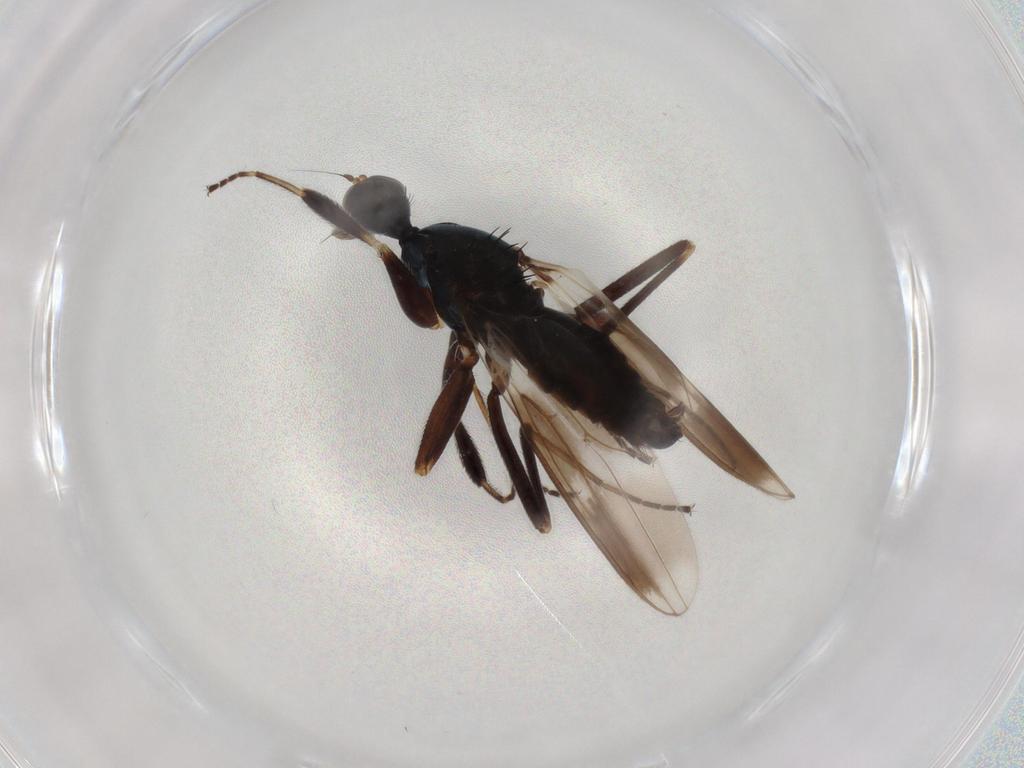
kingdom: Animalia
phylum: Arthropoda
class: Insecta
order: Diptera
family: Hybotidae
